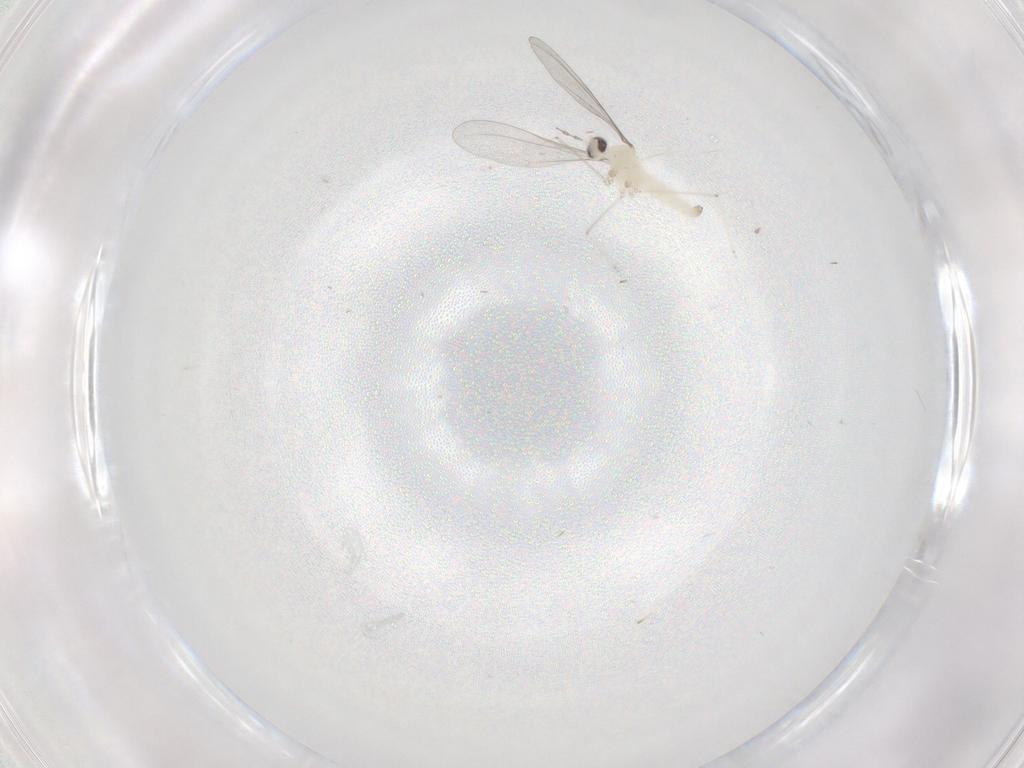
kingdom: Animalia
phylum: Arthropoda
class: Insecta
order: Diptera
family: Cecidomyiidae
